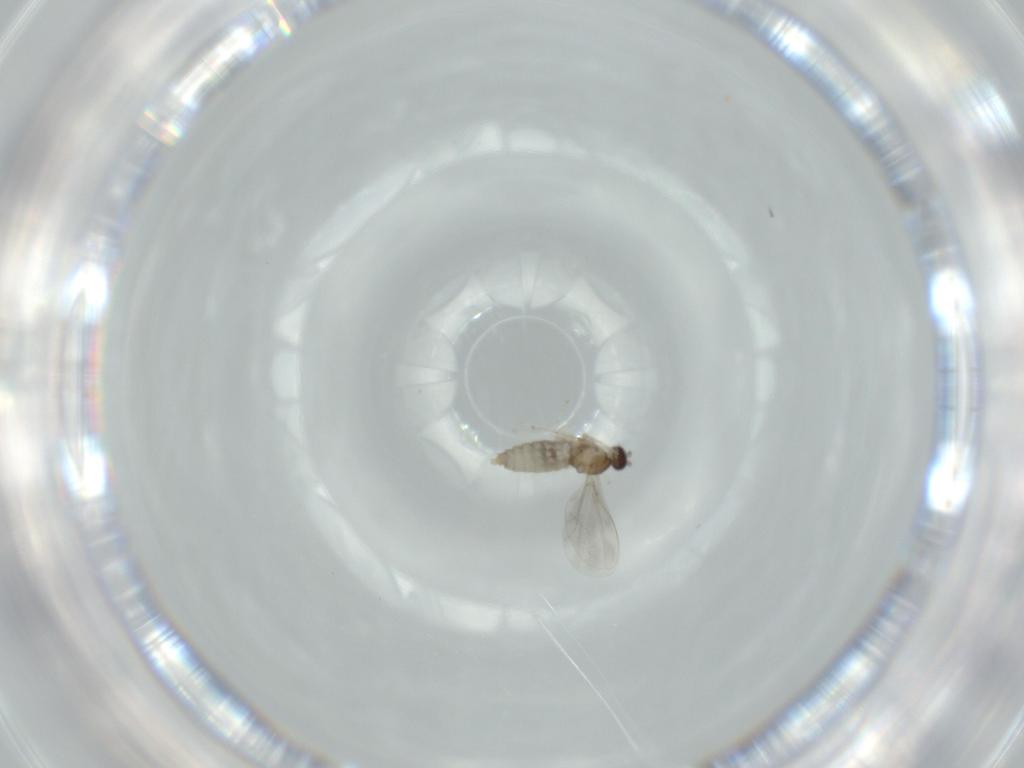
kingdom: Animalia
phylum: Arthropoda
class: Insecta
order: Diptera
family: Cecidomyiidae
